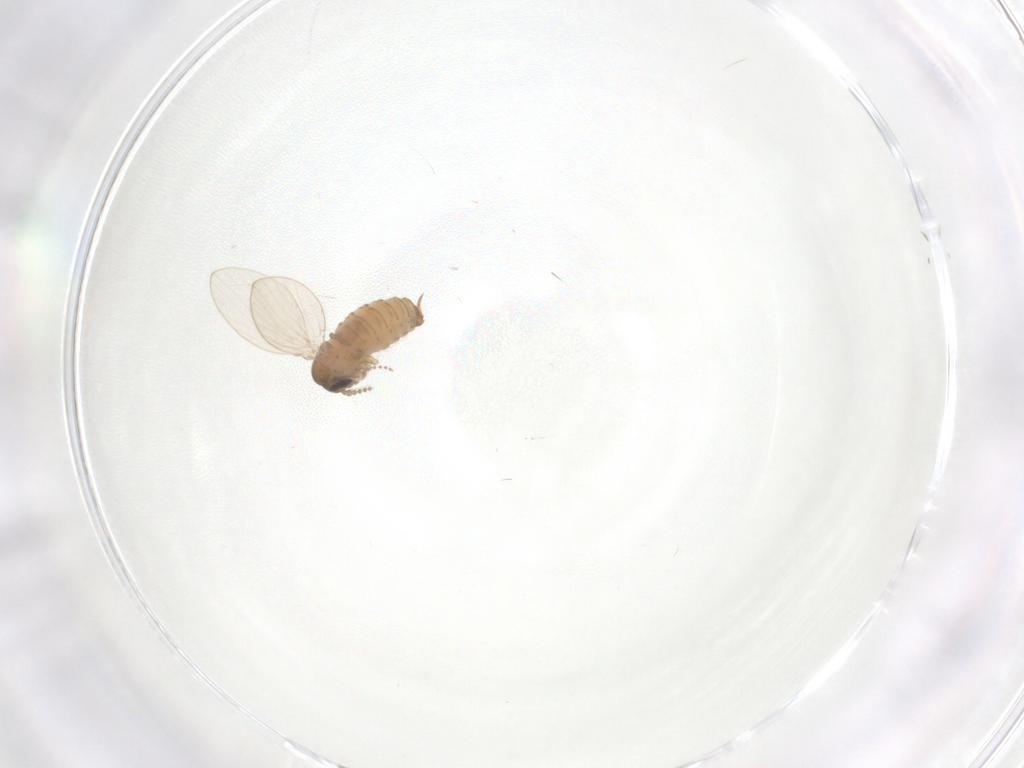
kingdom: Animalia
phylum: Arthropoda
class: Insecta
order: Diptera
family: Psychodidae
